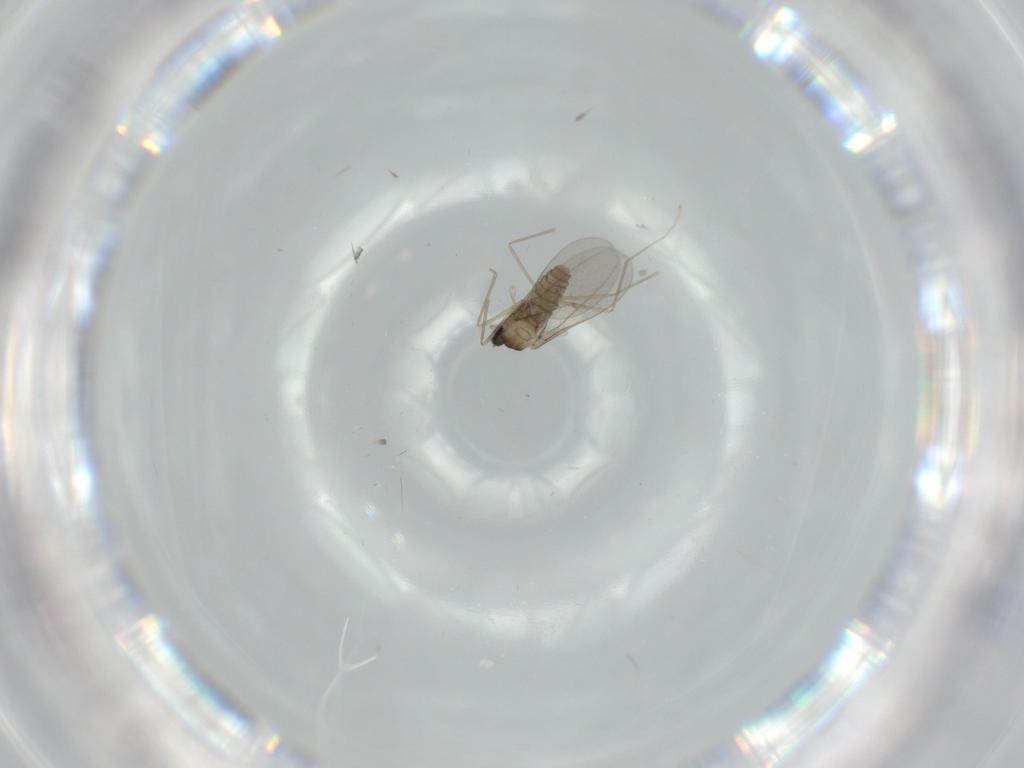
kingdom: Animalia
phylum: Arthropoda
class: Insecta
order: Diptera
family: Cecidomyiidae
